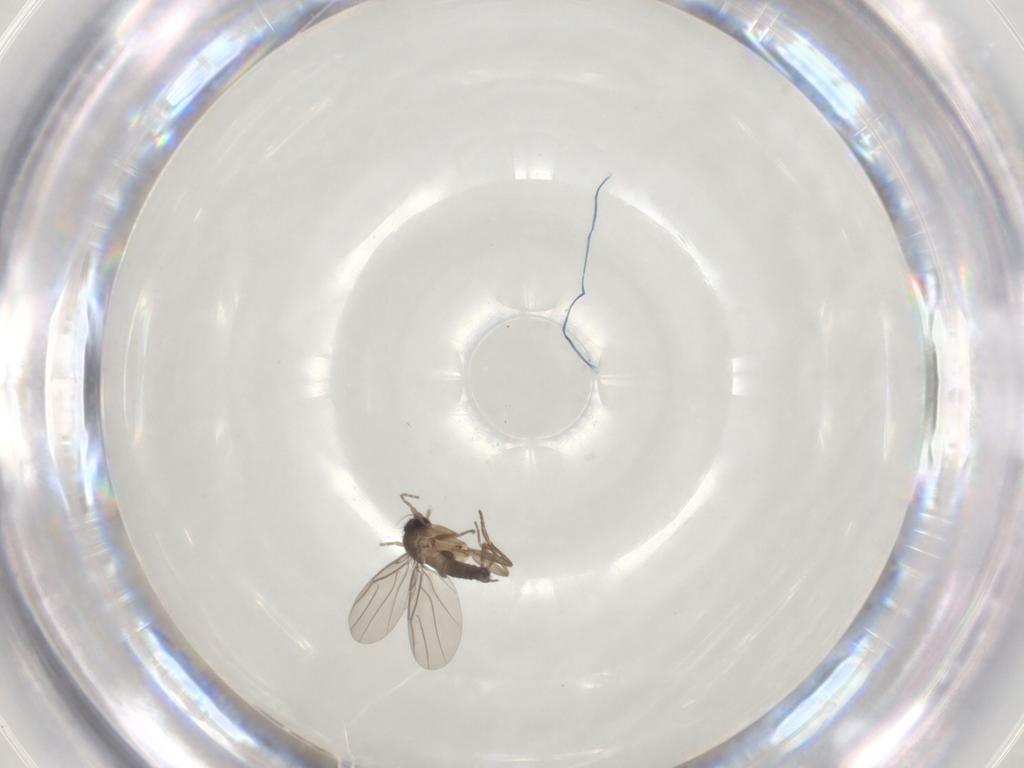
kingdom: Animalia
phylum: Arthropoda
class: Insecta
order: Diptera
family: Phoridae
